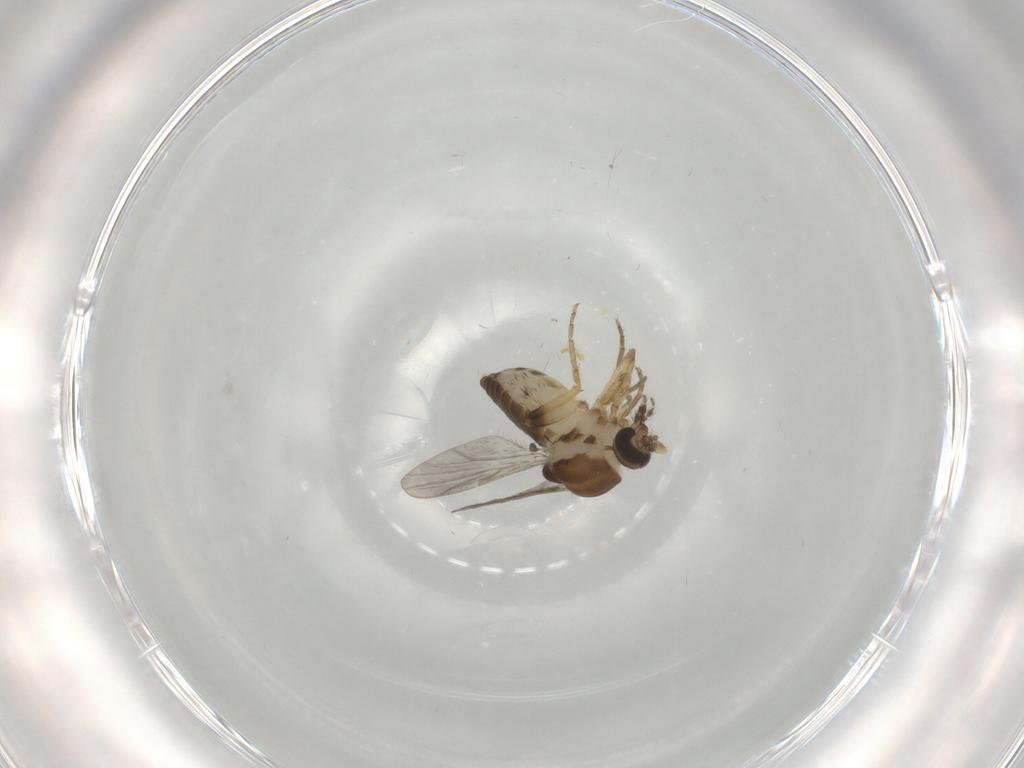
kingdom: Animalia
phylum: Arthropoda
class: Insecta
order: Diptera
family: Ceratopogonidae
